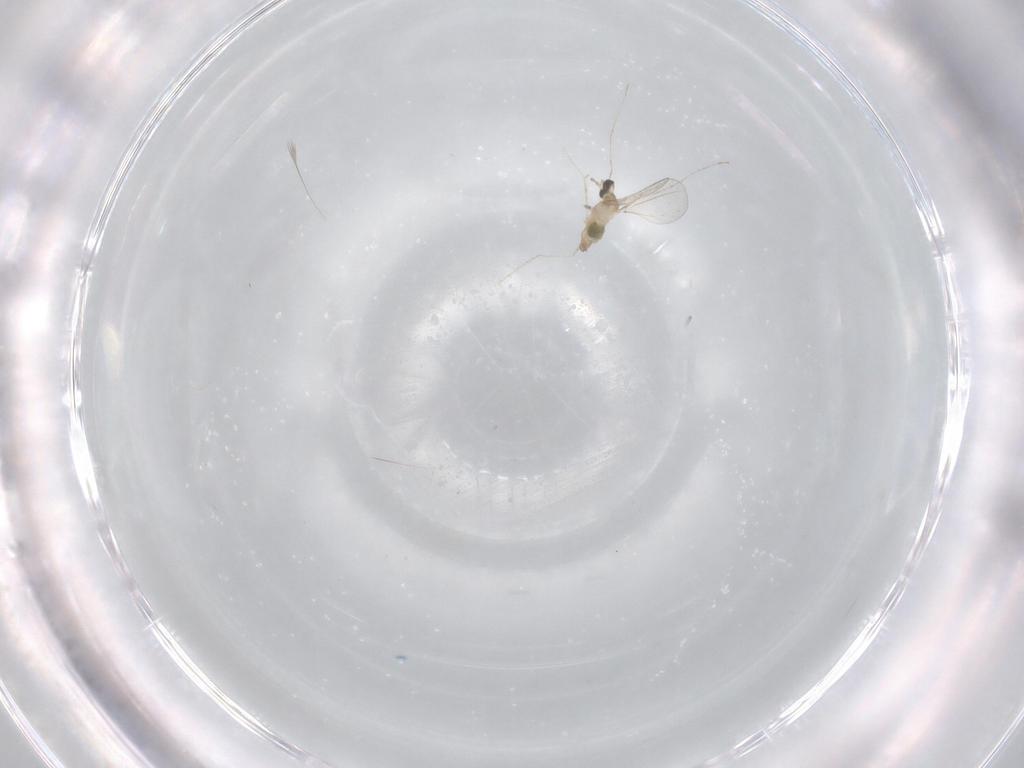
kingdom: Animalia
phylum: Arthropoda
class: Insecta
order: Diptera
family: Cecidomyiidae
